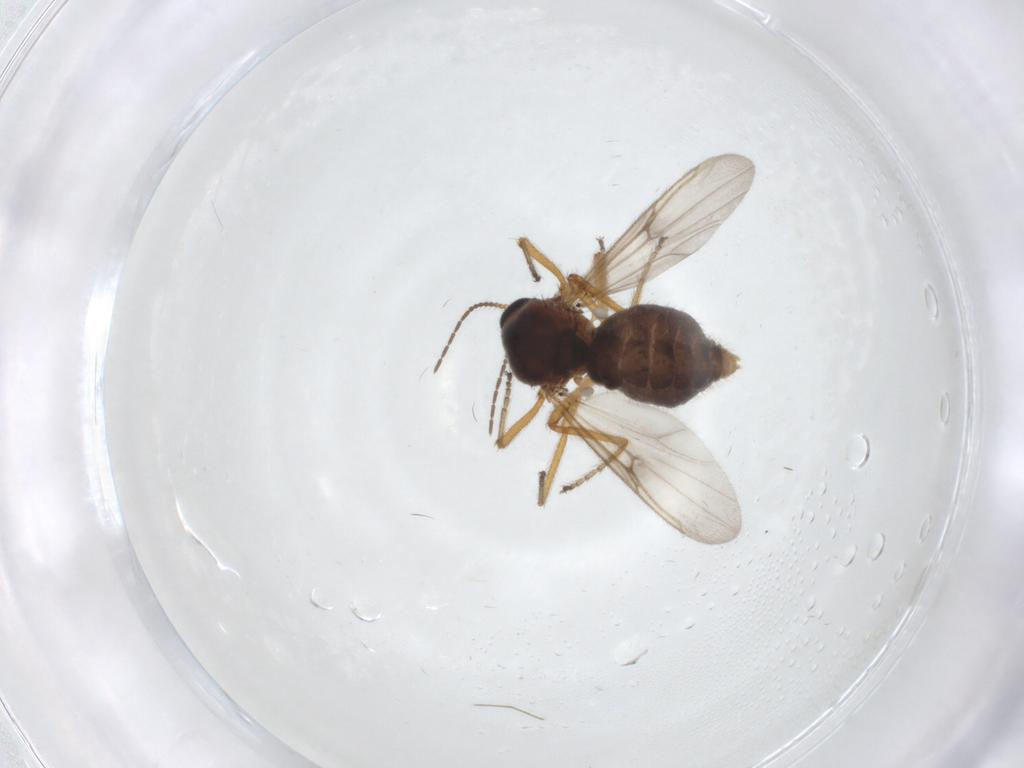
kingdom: Animalia
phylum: Arthropoda
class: Insecta
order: Diptera
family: Ceratopogonidae
